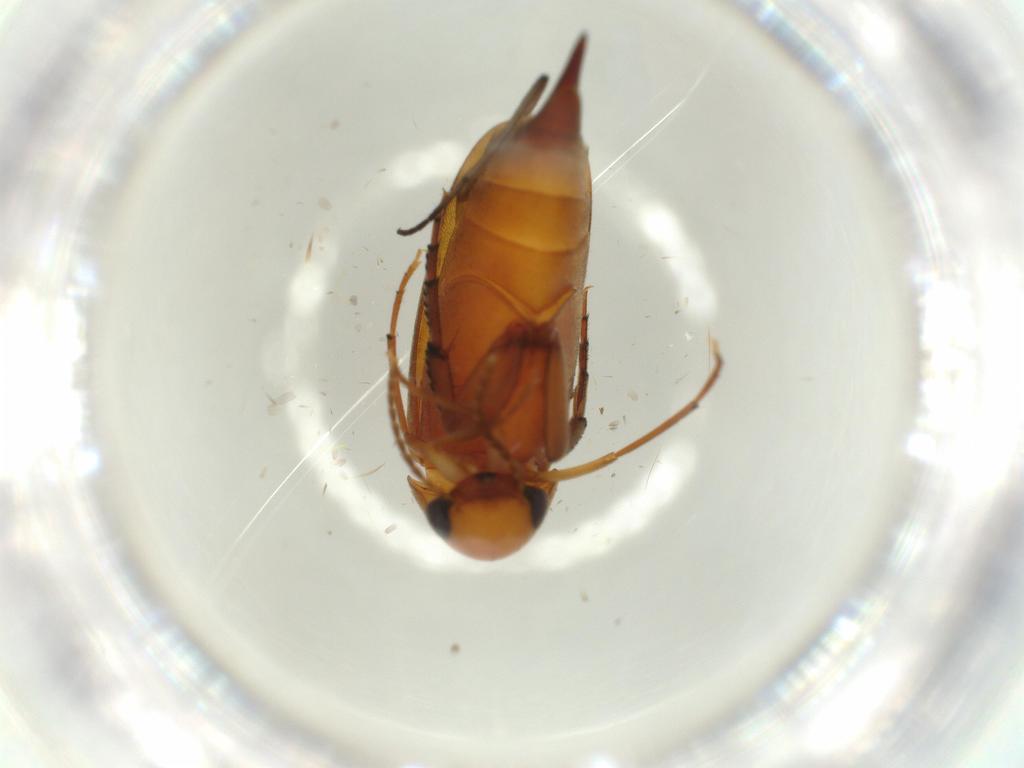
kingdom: Animalia
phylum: Arthropoda
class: Insecta
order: Coleoptera
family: Mordellidae
